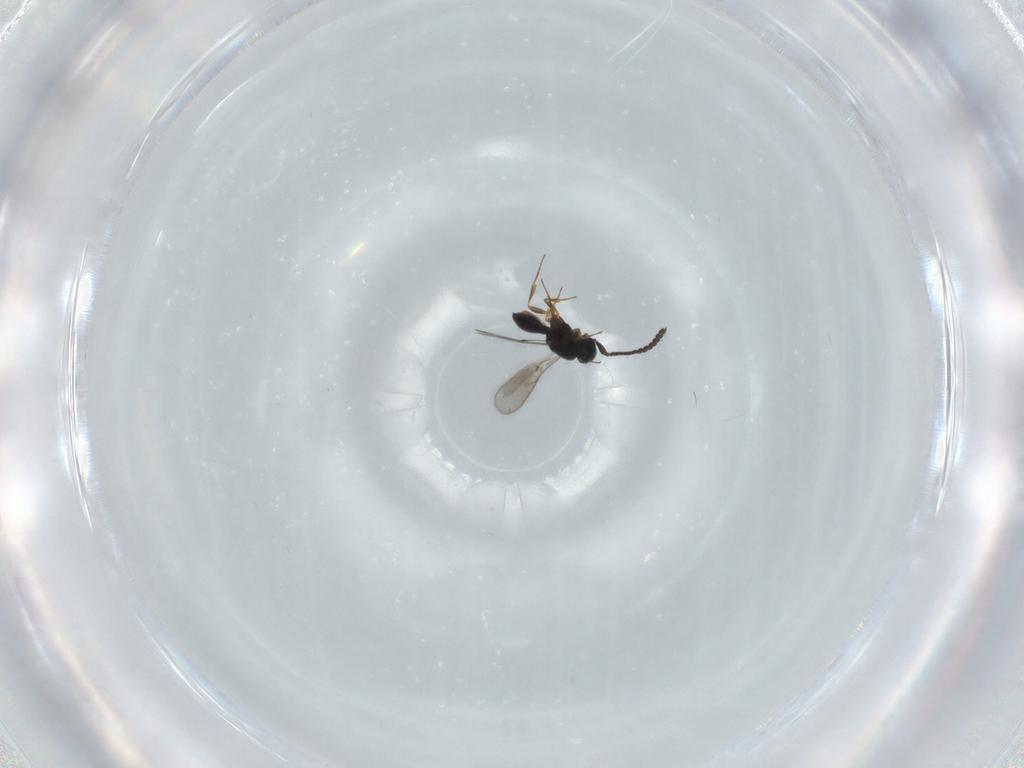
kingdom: Animalia
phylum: Arthropoda
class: Insecta
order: Hymenoptera
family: Scelionidae
